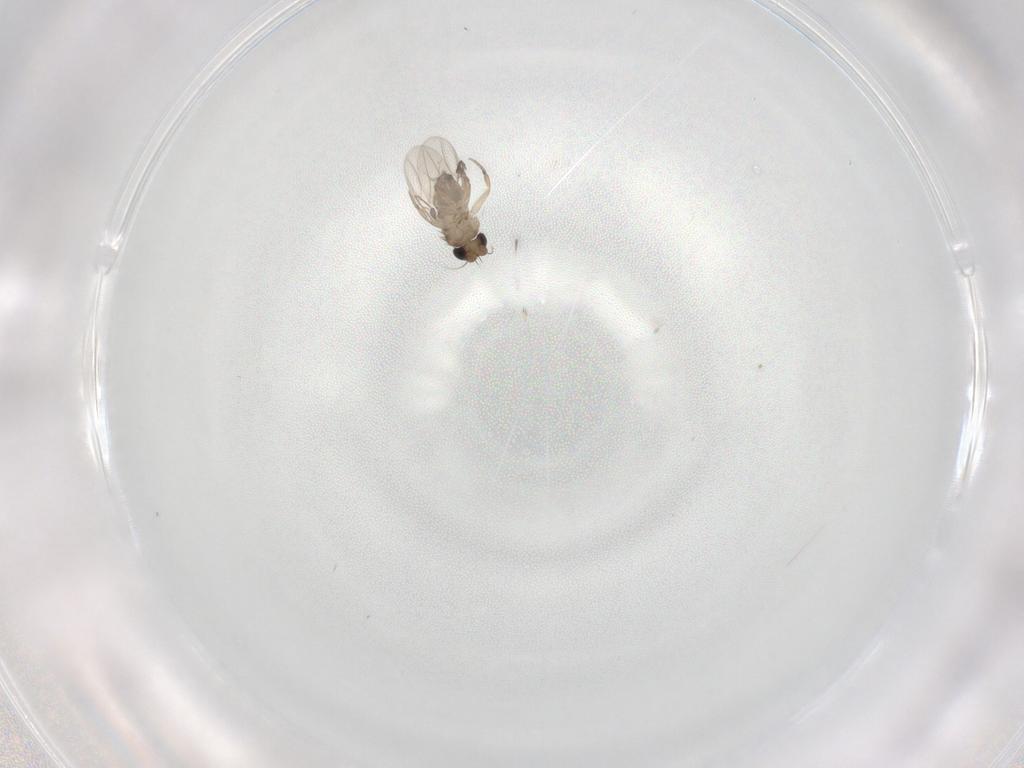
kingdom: Animalia
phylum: Arthropoda
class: Insecta
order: Diptera
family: Phoridae
